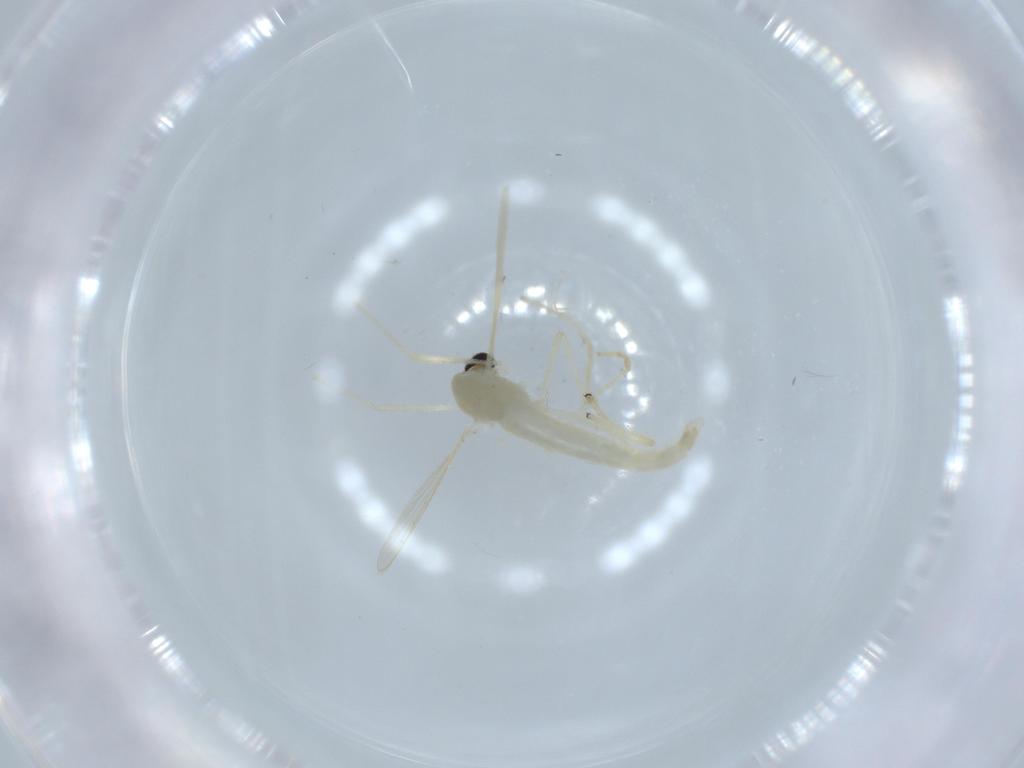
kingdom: Animalia
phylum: Arthropoda
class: Insecta
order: Diptera
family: Chironomidae
